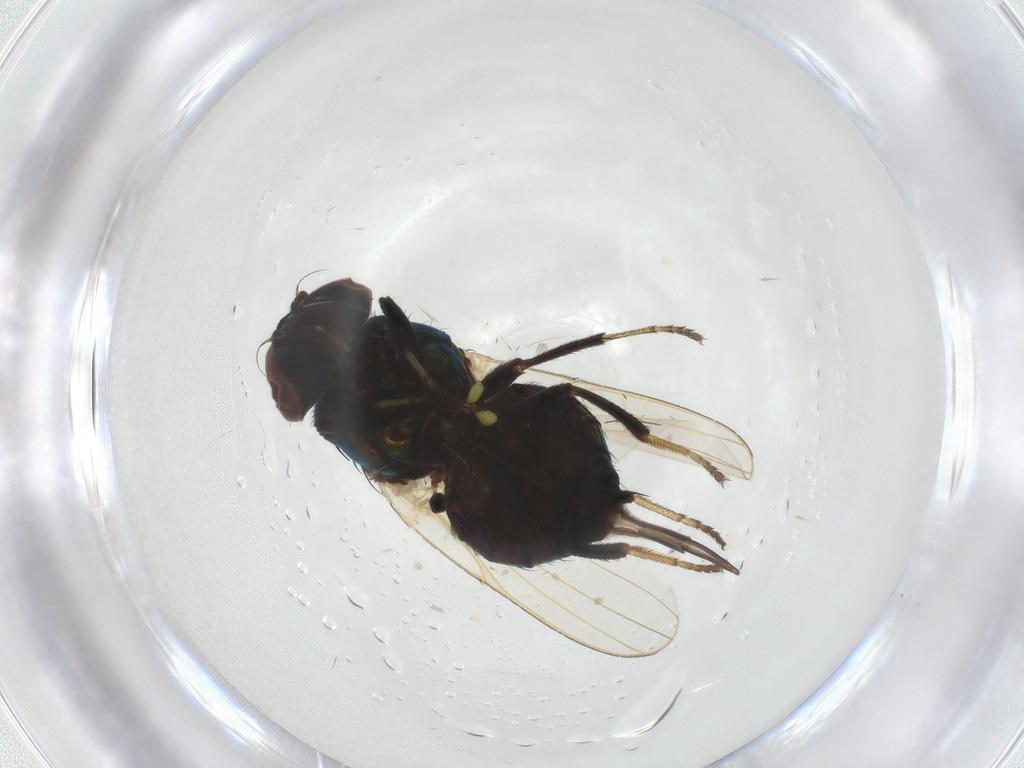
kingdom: Animalia
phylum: Arthropoda
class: Insecta
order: Diptera
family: Lonchaeidae
